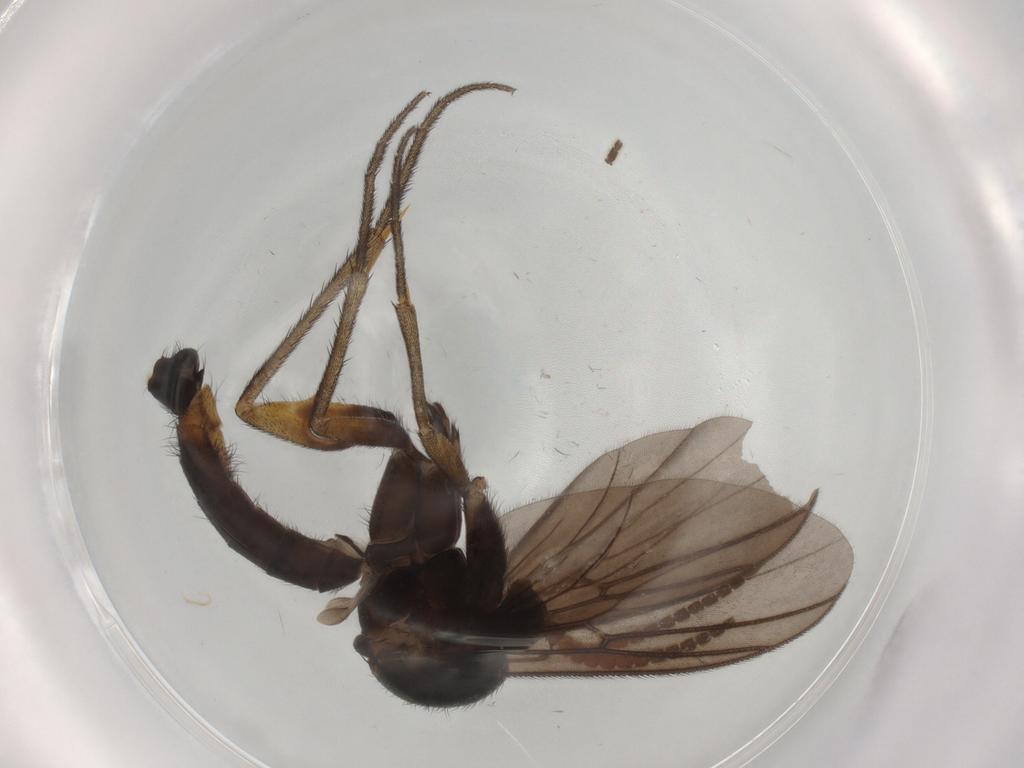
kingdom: Animalia
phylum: Arthropoda
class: Insecta
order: Diptera
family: Mycetophilidae
